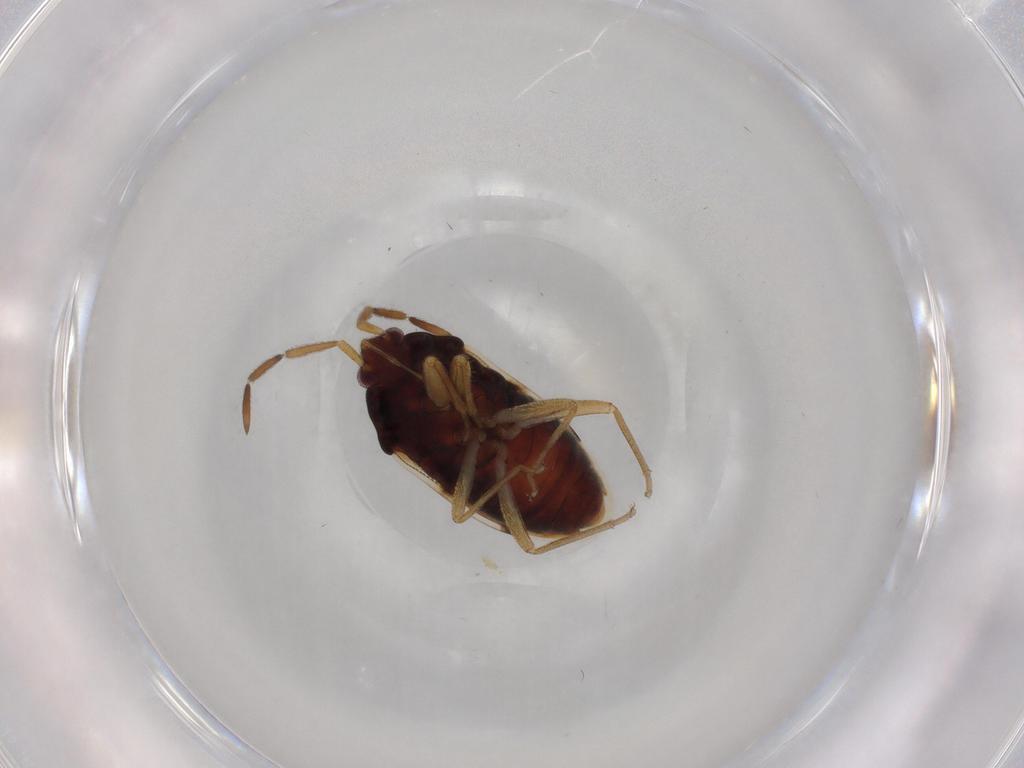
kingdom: Animalia
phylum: Arthropoda
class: Insecta
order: Hemiptera
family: Rhyparochromidae
